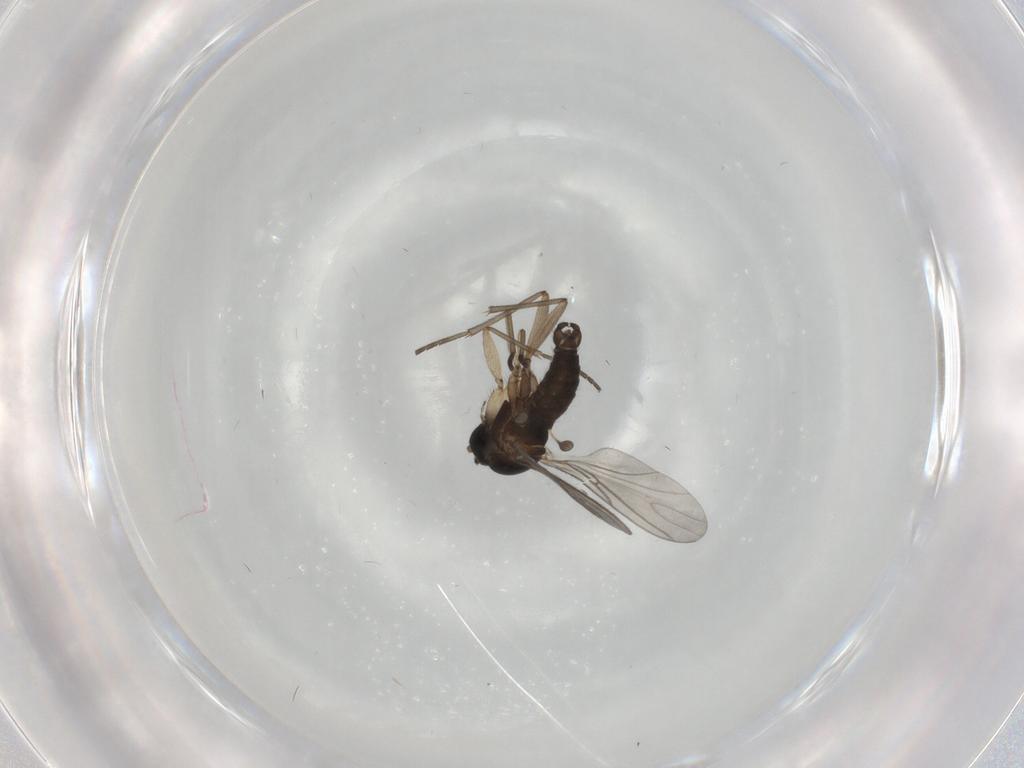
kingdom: Animalia
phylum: Arthropoda
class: Insecta
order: Diptera
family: Sciaridae
